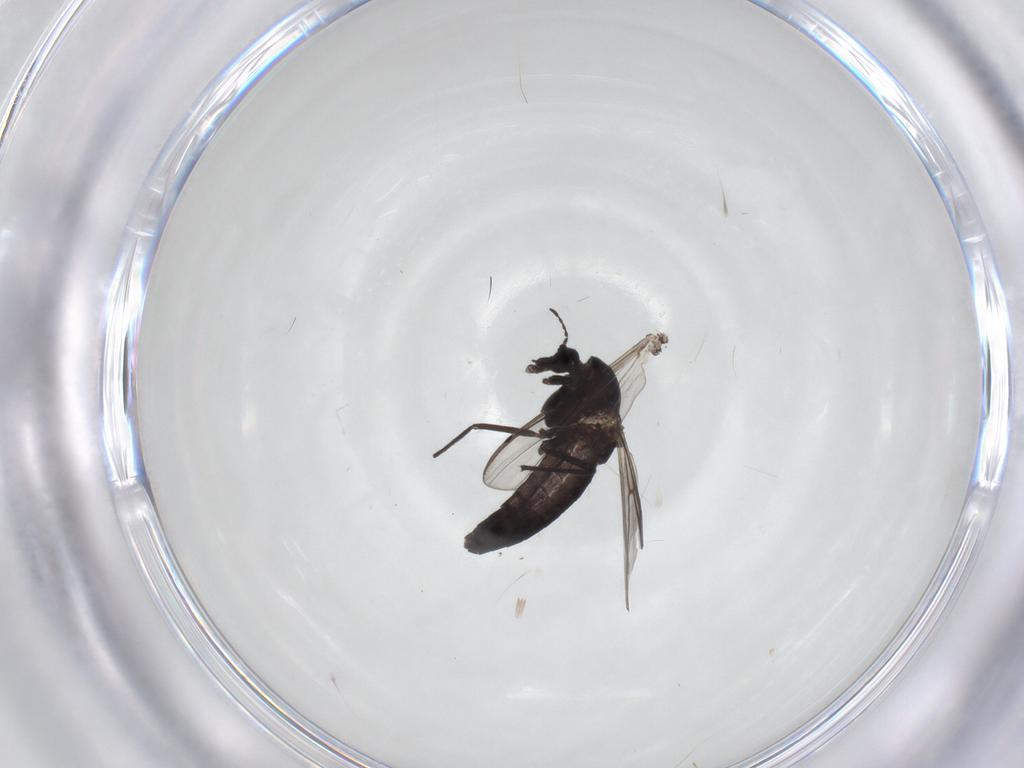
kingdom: Animalia
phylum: Arthropoda
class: Insecta
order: Diptera
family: Chironomidae
